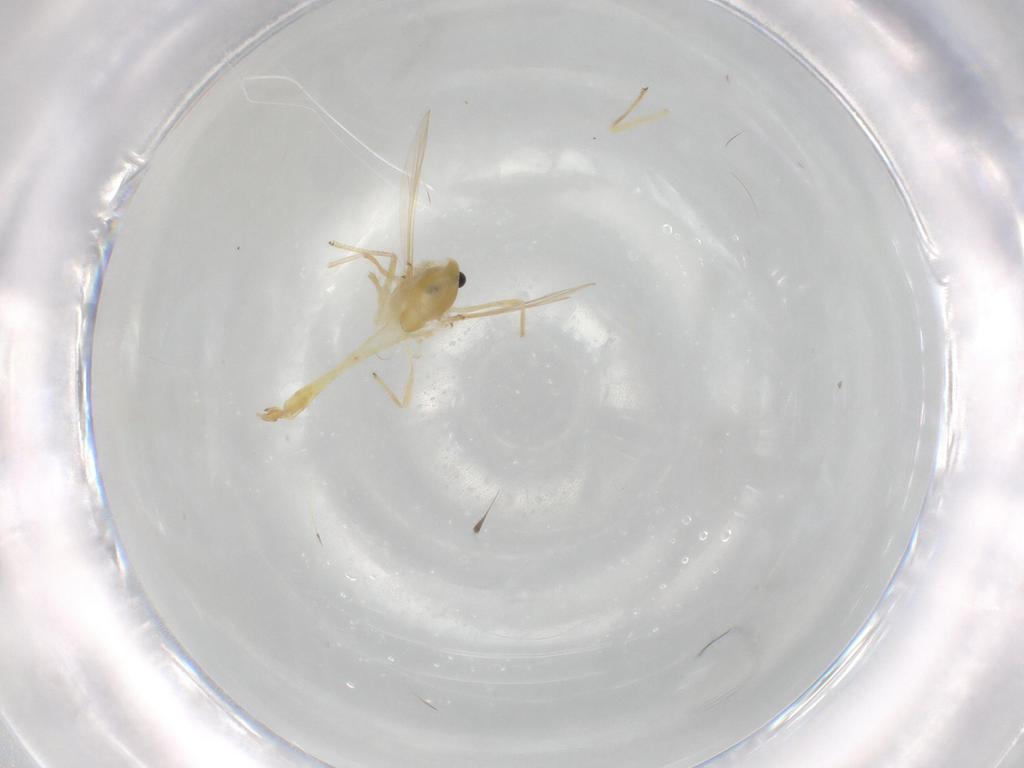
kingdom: Animalia
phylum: Arthropoda
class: Insecta
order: Diptera
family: Chironomidae
